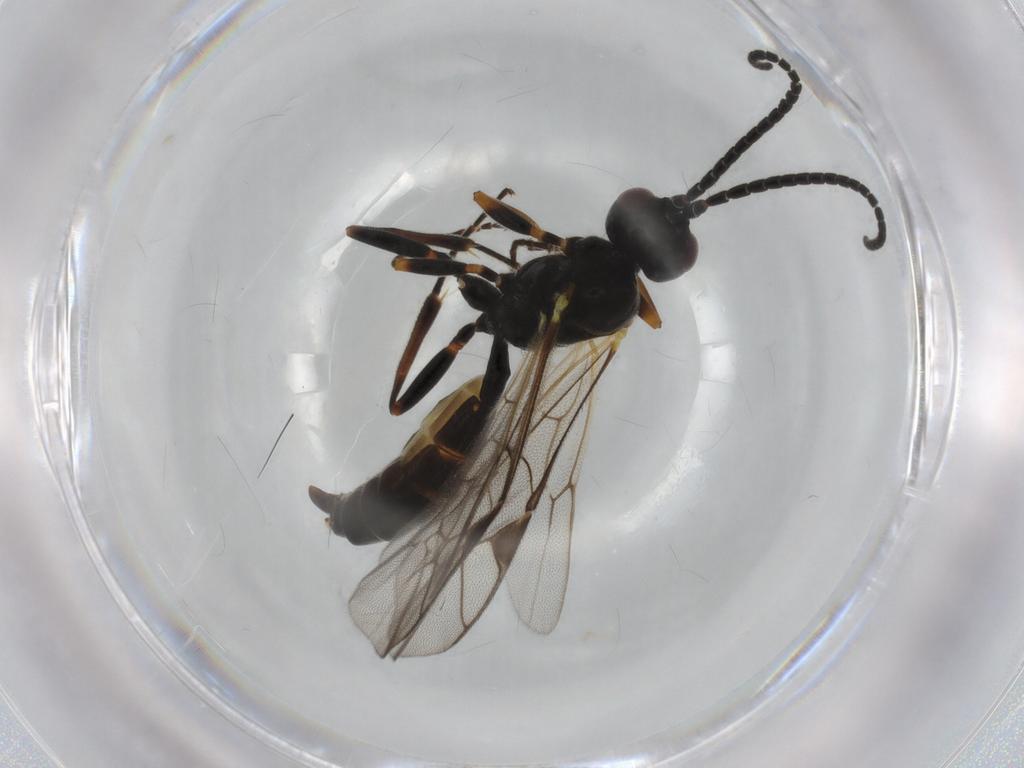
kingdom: Animalia
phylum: Arthropoda
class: Insecta
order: Hymenoptera
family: Ichneumonidae
